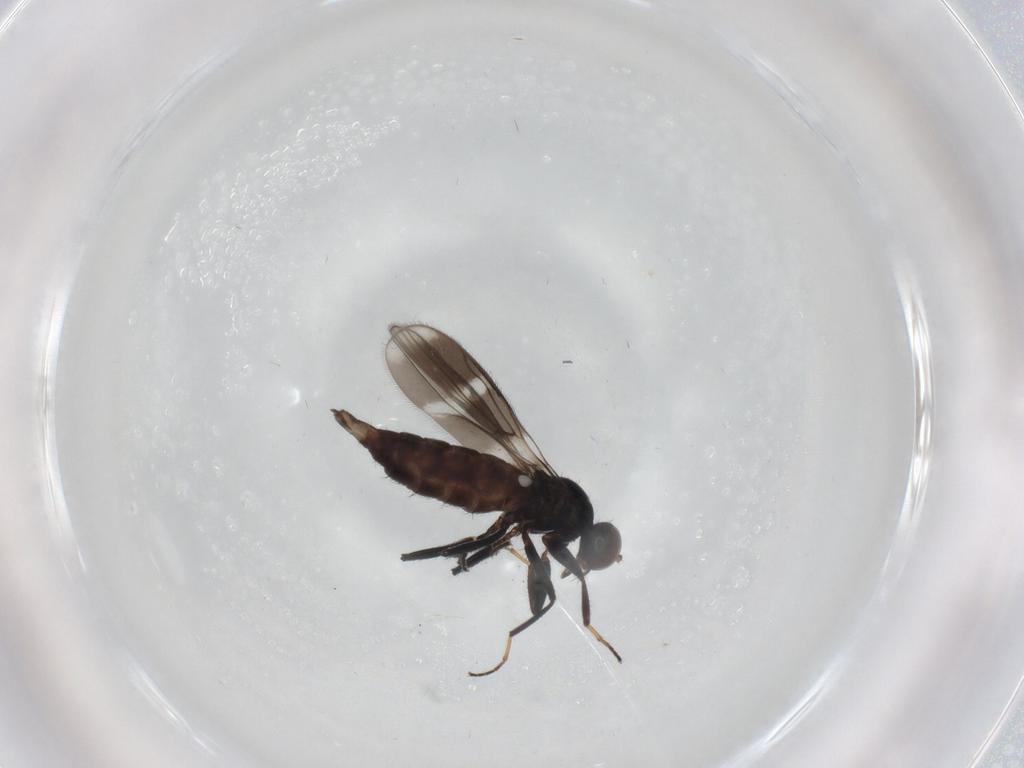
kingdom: Animalia
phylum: Arthropoda
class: Insecta
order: Diptera
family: Hybotidae
